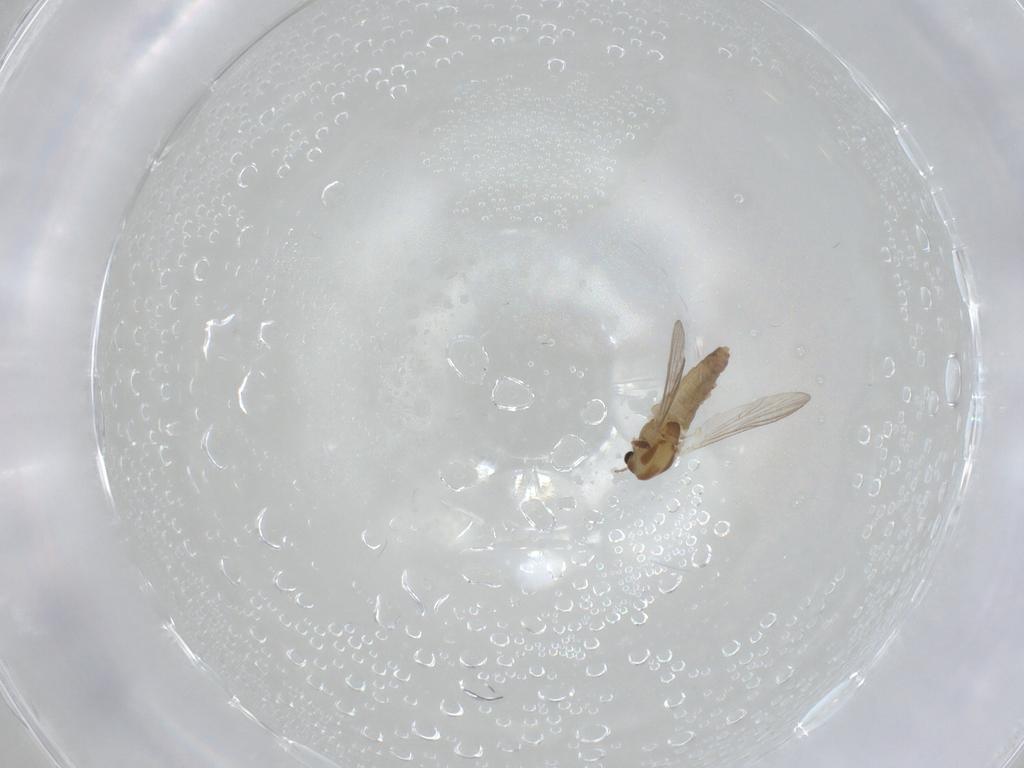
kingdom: Animalia
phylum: Arthropoda
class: Insecta
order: Diptera
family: Chironomidae
